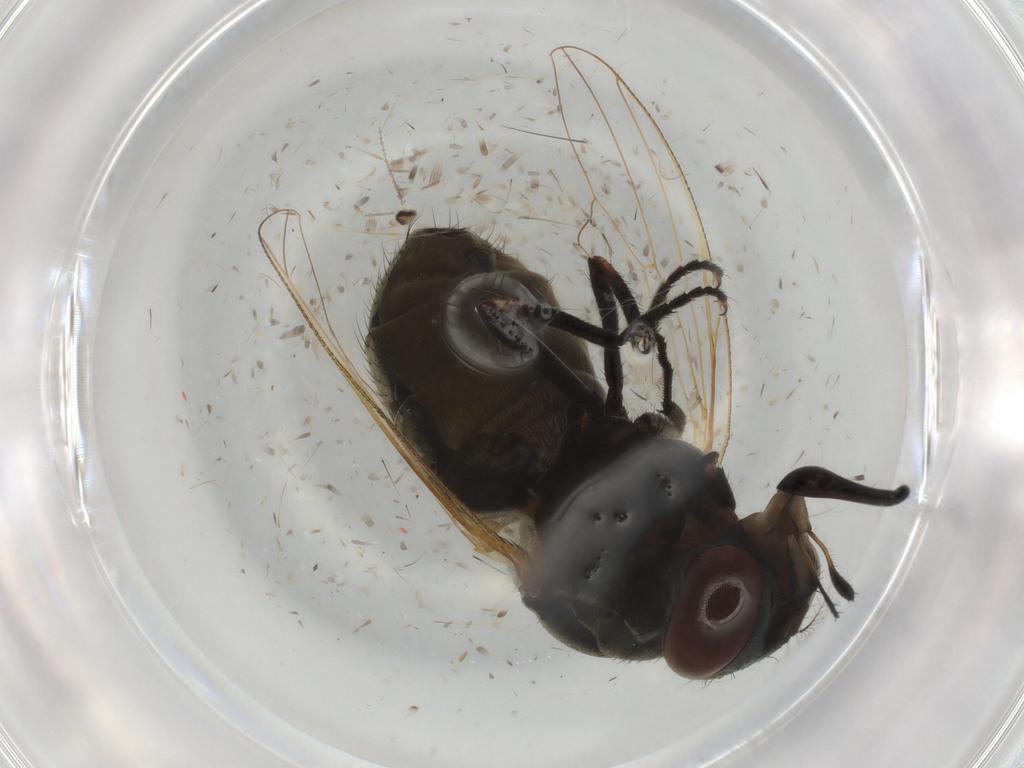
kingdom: Animalia
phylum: Arthropoda
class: Insecta
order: Diptera
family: Muscidae
